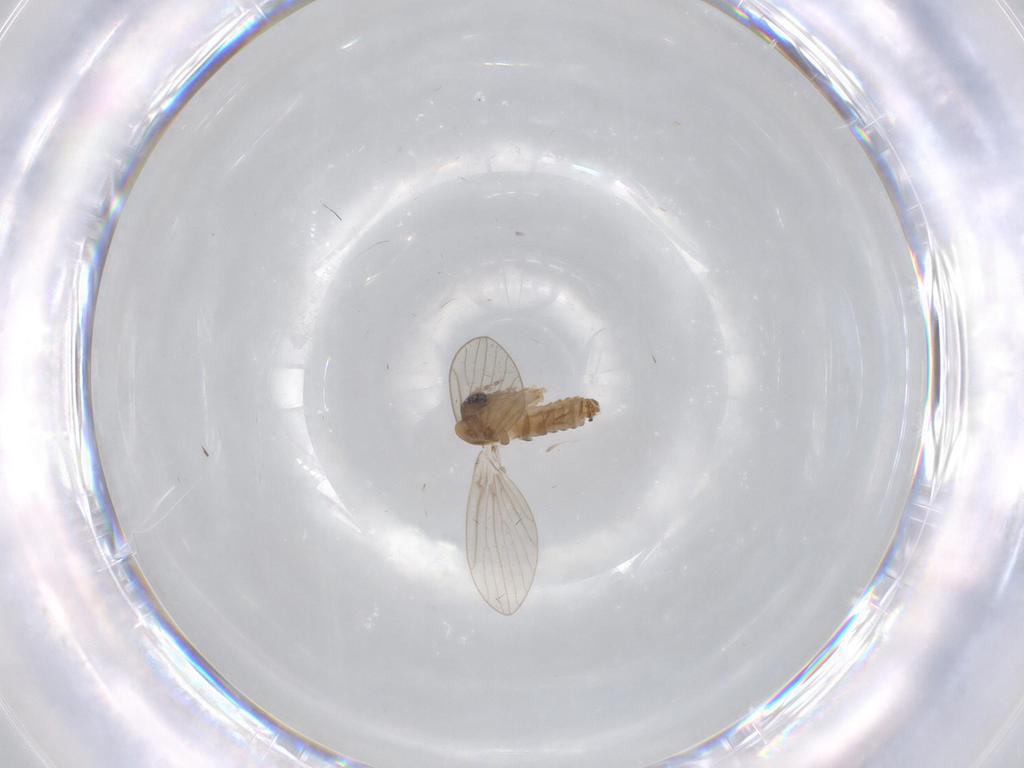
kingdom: Animalia
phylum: Arthropoda
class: Insecta
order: Diptera
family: Psychodidae
